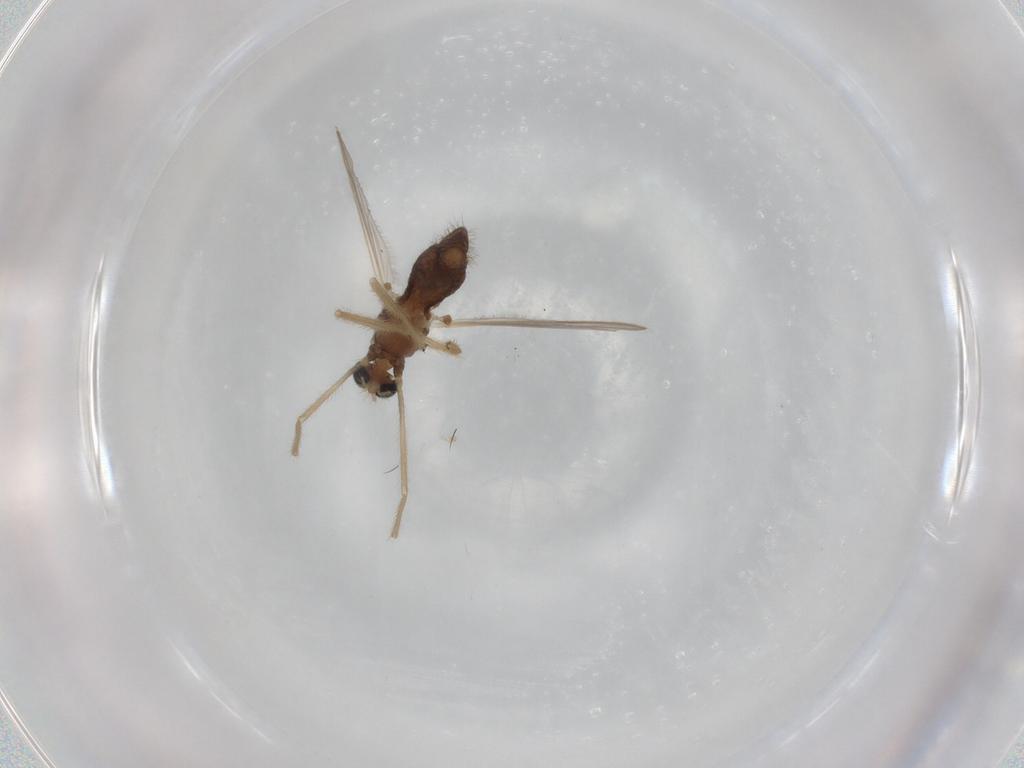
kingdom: Animalia
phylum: Arthropoda
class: Insecta
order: Diptera
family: Chironomidae
